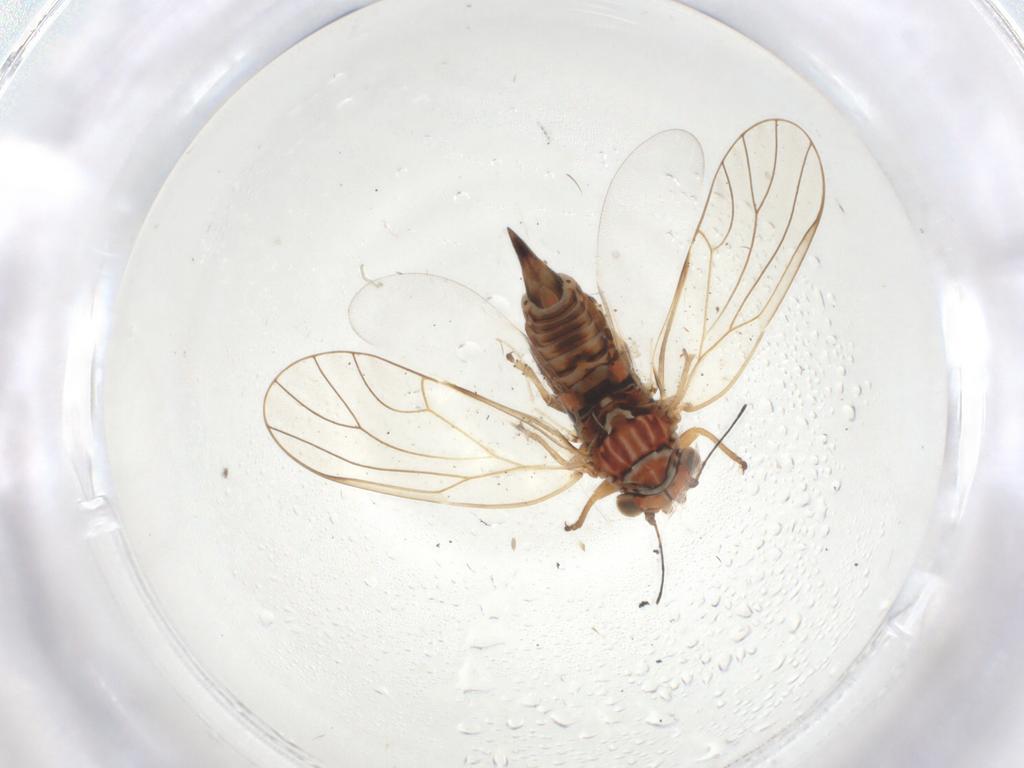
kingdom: Animalia
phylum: Arthropoda
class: Insecta
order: Hemiptera
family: Psyllidae
